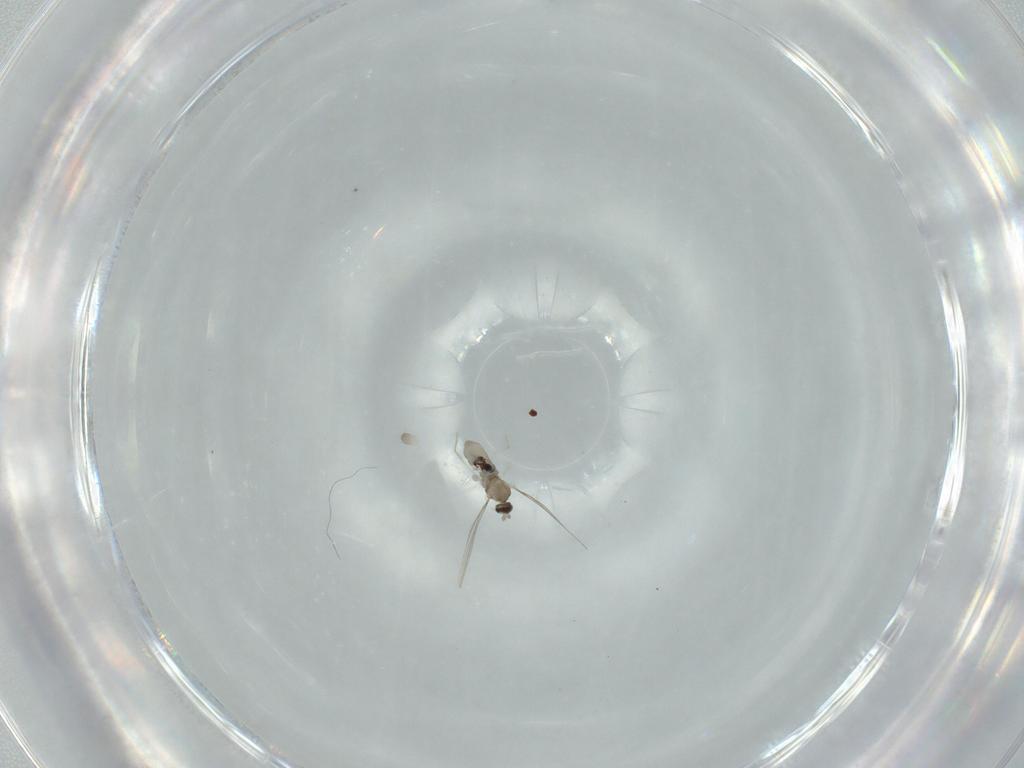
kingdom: Animalia
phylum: Arthropoda
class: Insecta
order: Diptera
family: Cecidomyiidae
